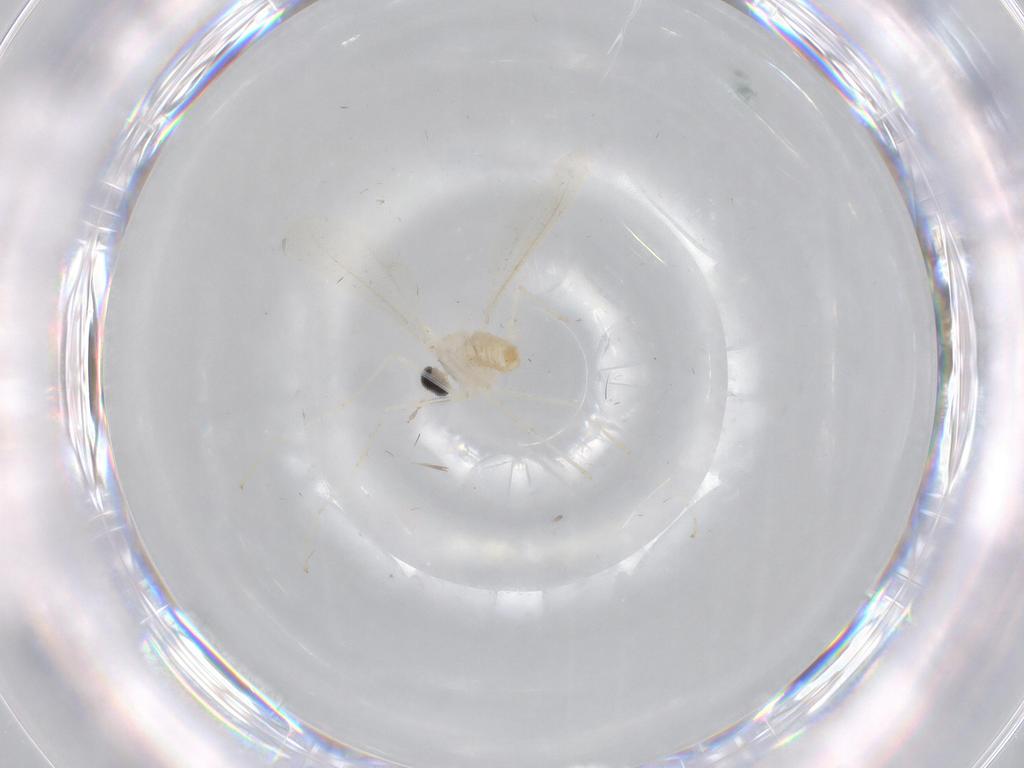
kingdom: Animalia
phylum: Arthropoda
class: Insecta
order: Diptera
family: Cecidomyiidae
